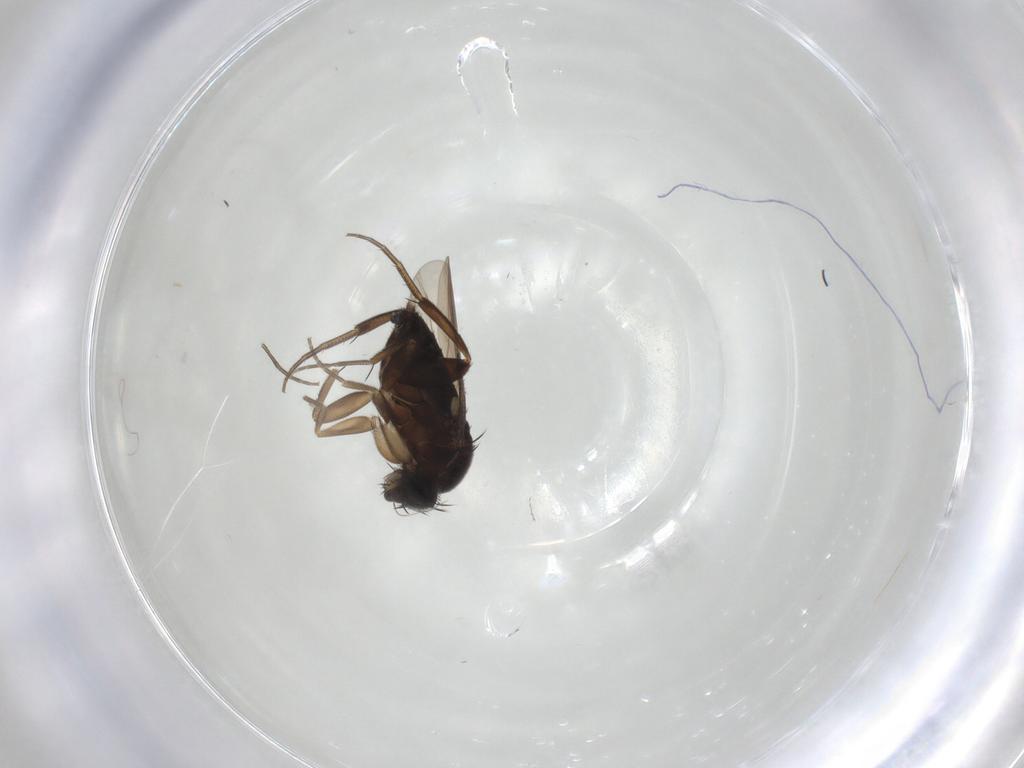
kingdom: Animalia
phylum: Arthropoda
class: Insecta
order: Diptera
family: Phoridae
